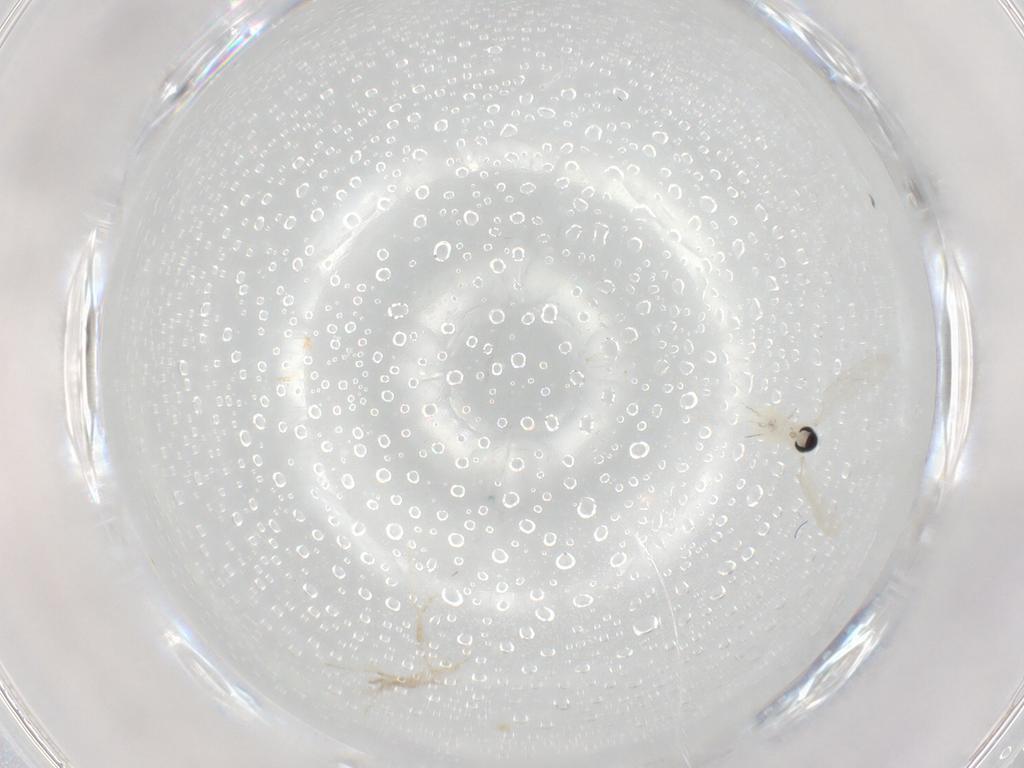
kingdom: Animalia
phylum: Arthropoda
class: Insecta
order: Diptera
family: Cecidomyiidae
